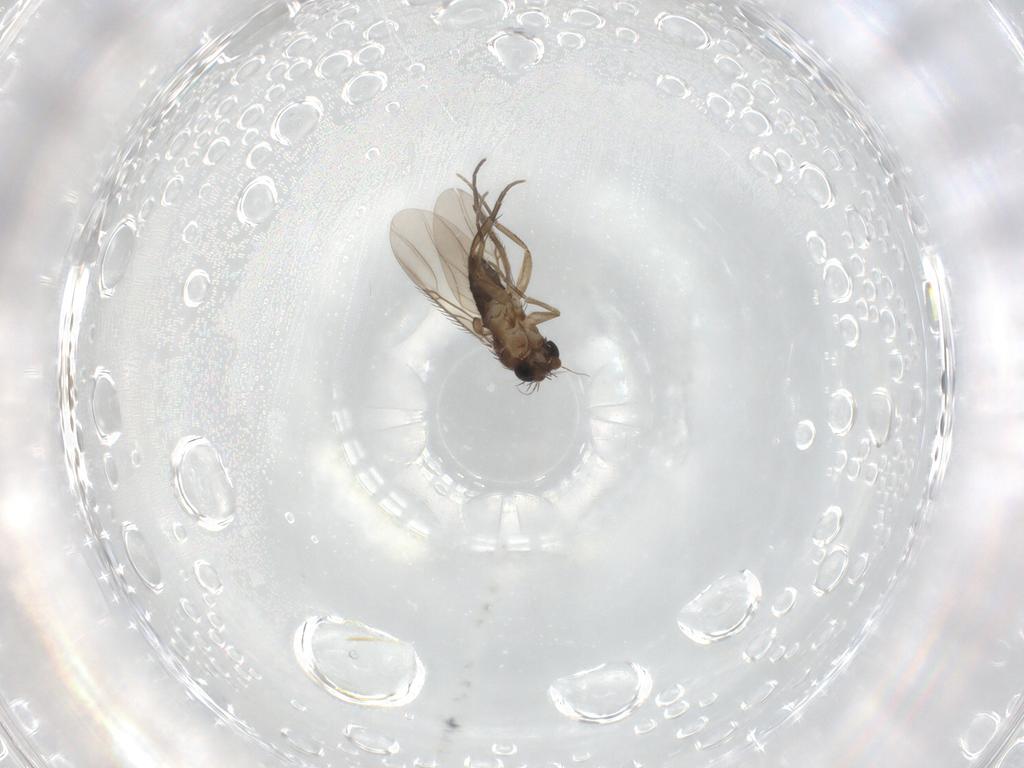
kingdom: Animalia
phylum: Arthropoda
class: Insecta
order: Diptera
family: Phoridae
